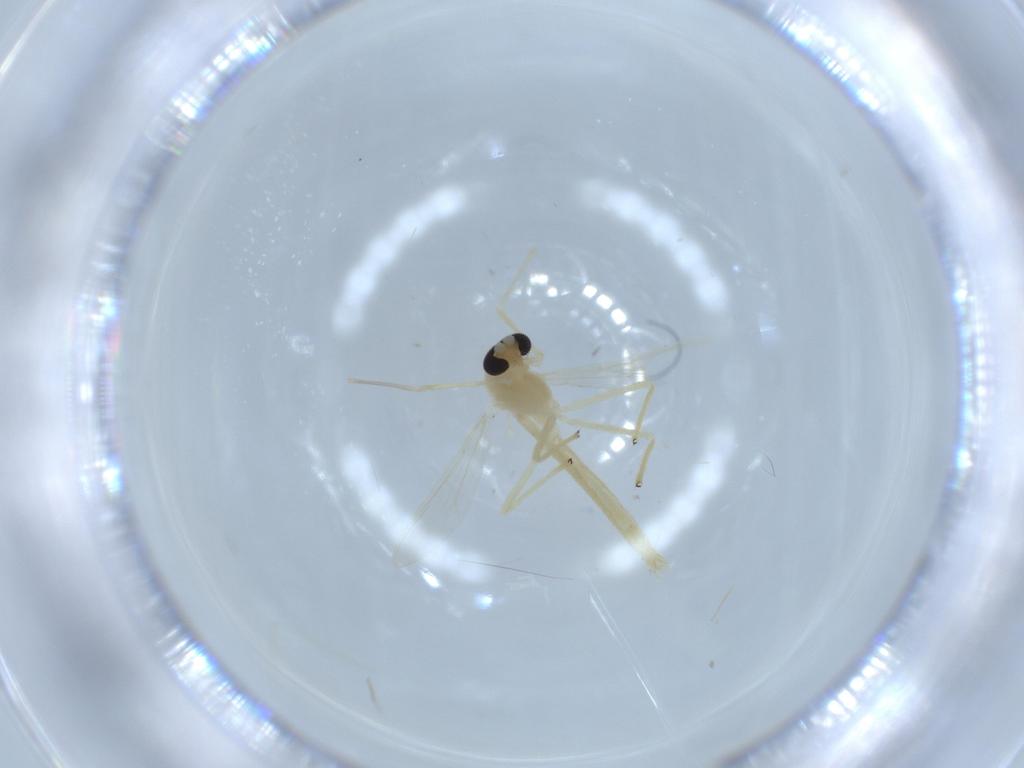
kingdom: Animalia
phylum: Arthropoda
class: Insecta
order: Diptera
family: Chironomidae
